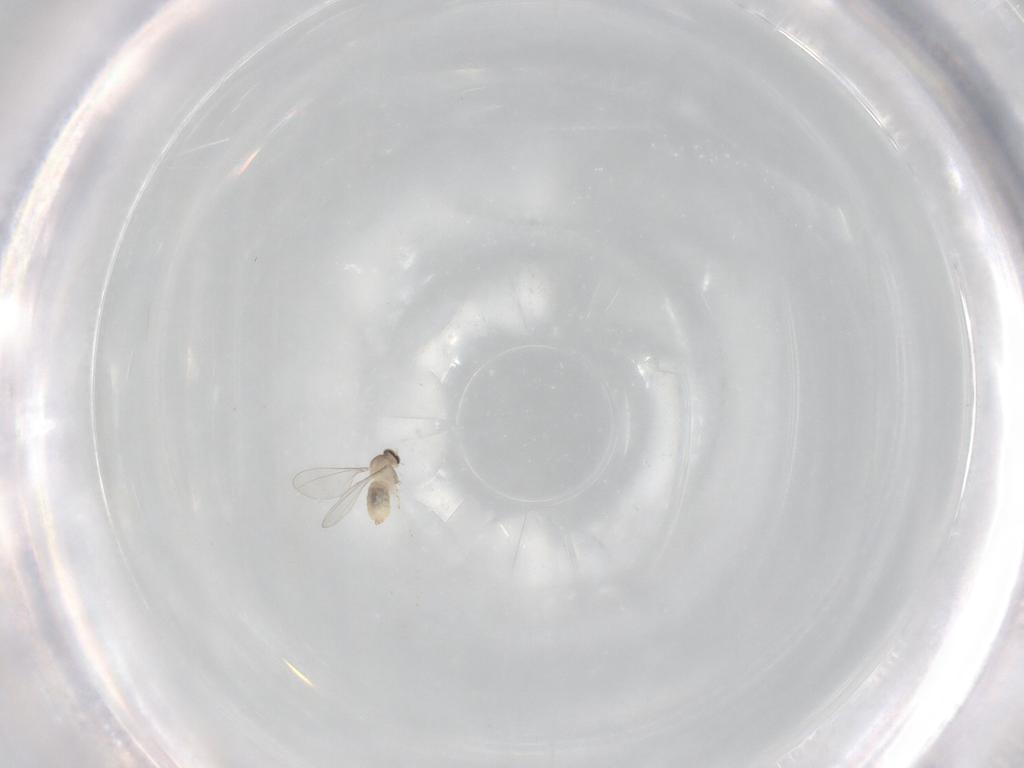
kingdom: Animalia
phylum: Arthropoda
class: Insecta
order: Diptera
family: Cecidomyiidae
